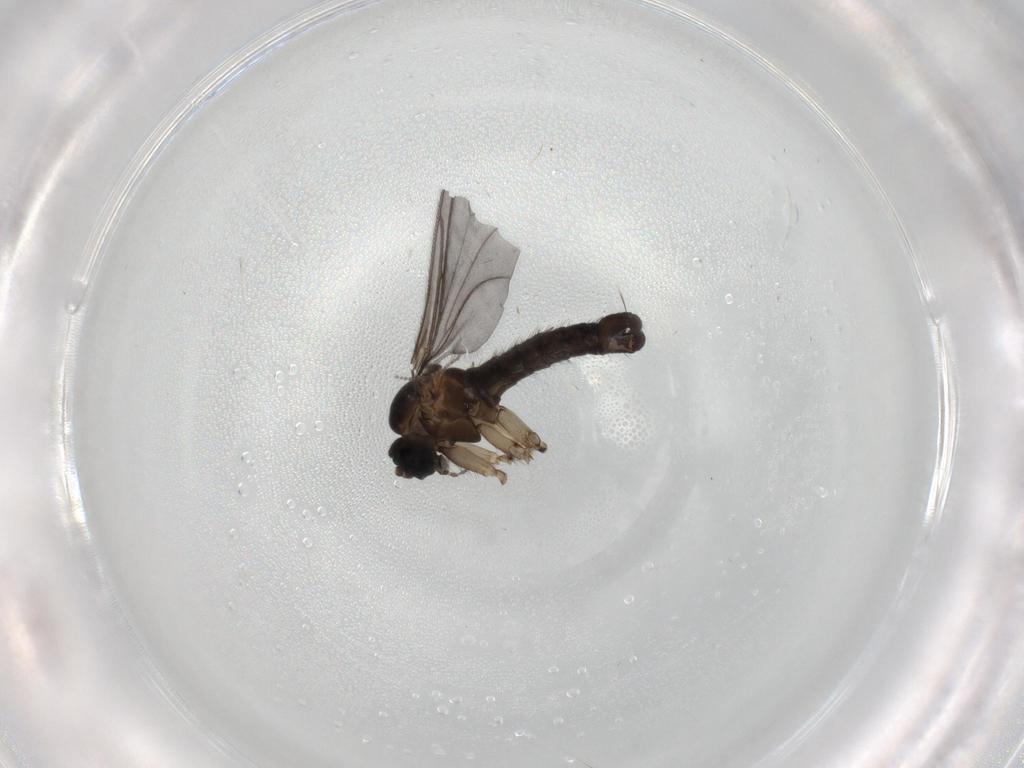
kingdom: Animalia
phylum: Arthropoda
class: Insecta
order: Diptera
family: Sciaridae
